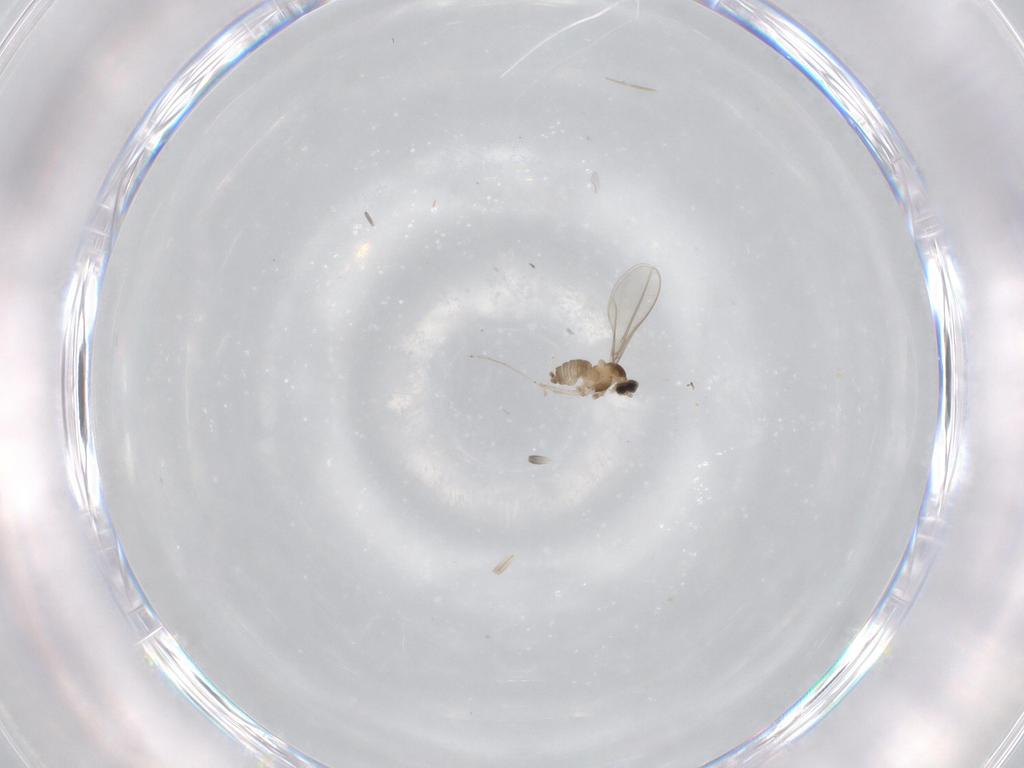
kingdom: Animalia
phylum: Arthropoda
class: Insecta
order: Diptera
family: Cecidomyiidae
